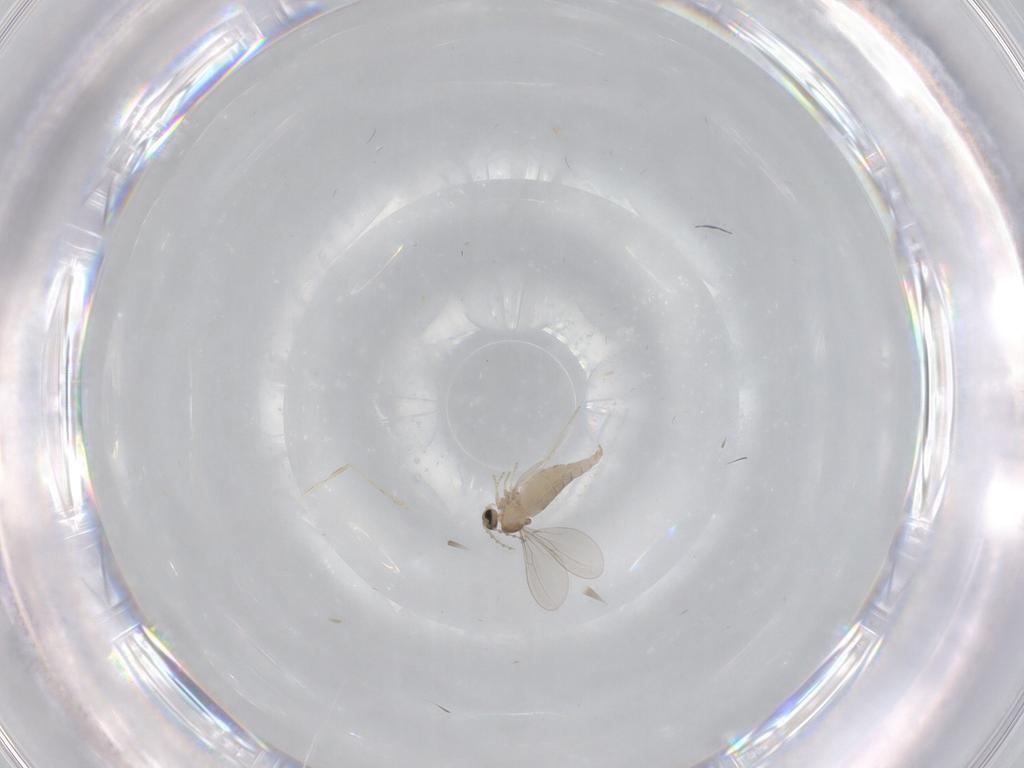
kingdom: Animalia
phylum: Arthropoda
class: Insecta
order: Diptera
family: Cecidomyiidae
